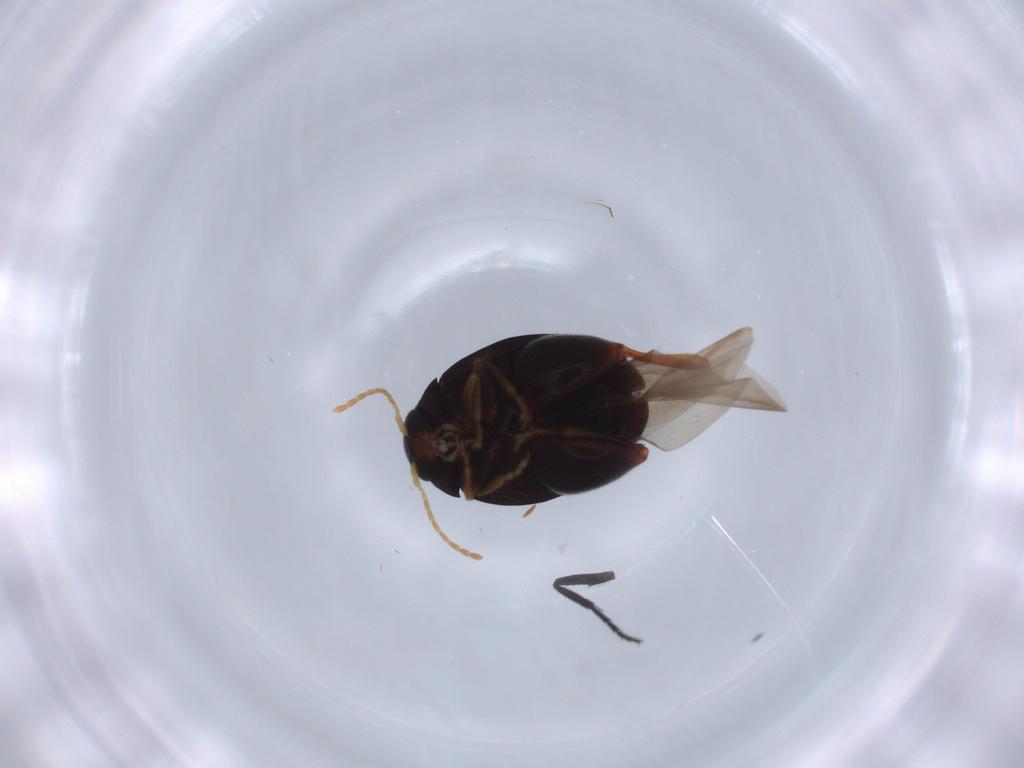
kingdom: Animalia
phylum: Arthropoda
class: Insecta
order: Coleoptera
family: Chrysomelidae
